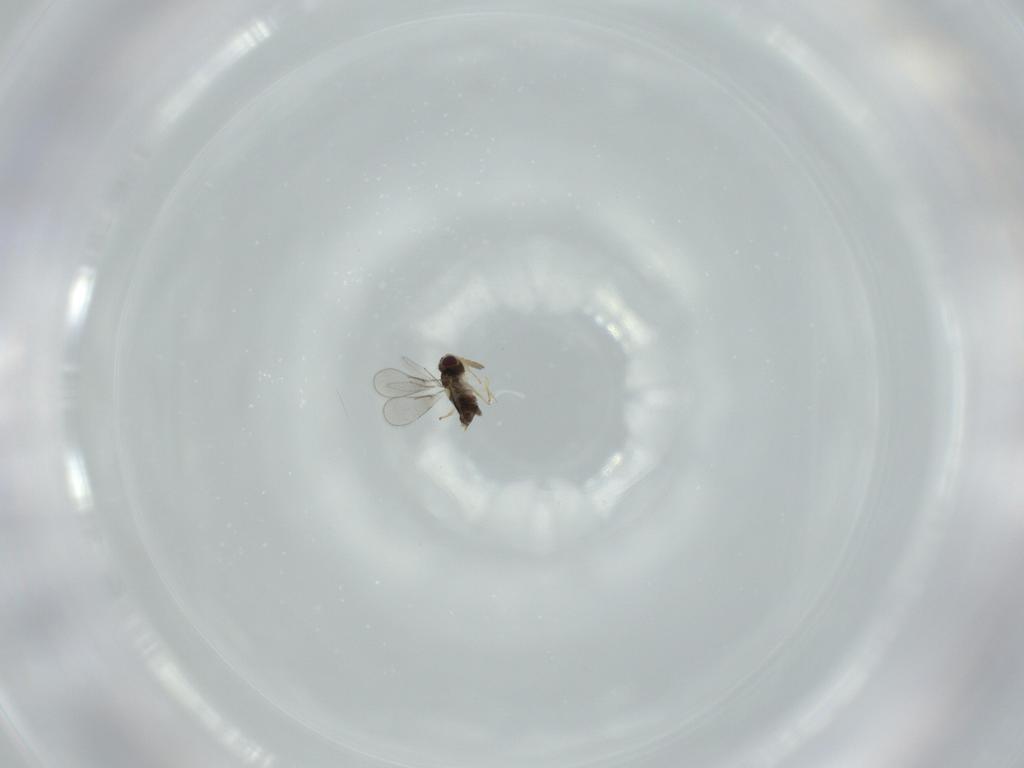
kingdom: Animalia
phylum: Arthropoda
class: Insecta
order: Hymenoptera
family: Aphelinidae
